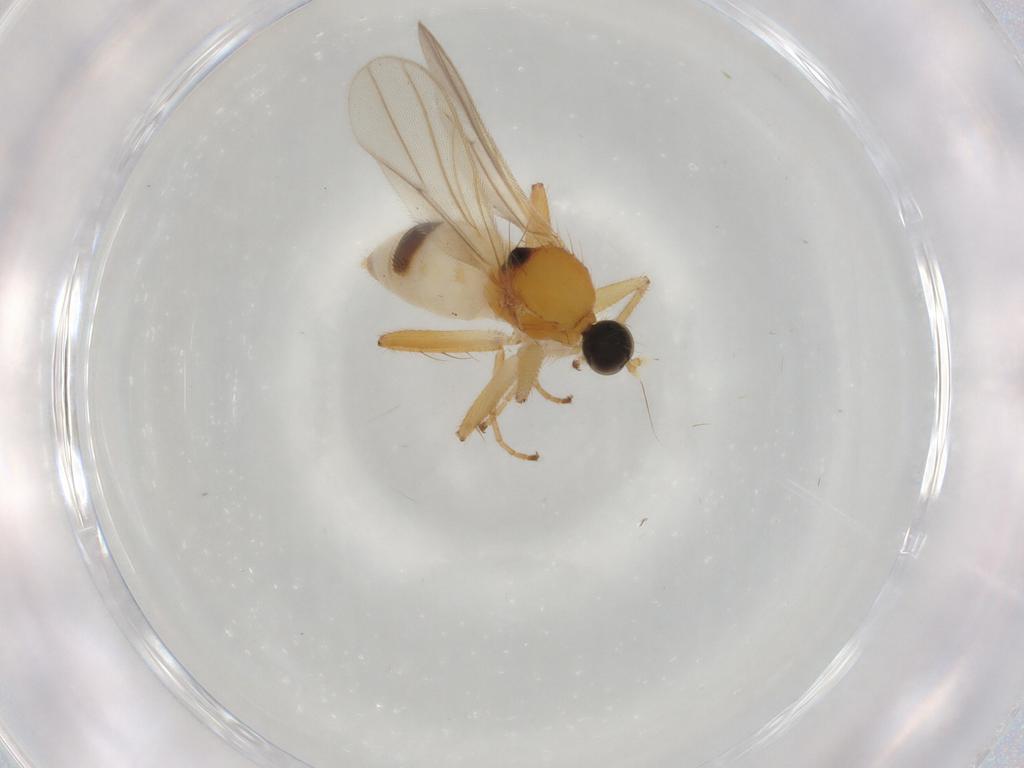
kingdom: Animalia
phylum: Arthropoda
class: Insecta
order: Diptera
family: Hybotidae
